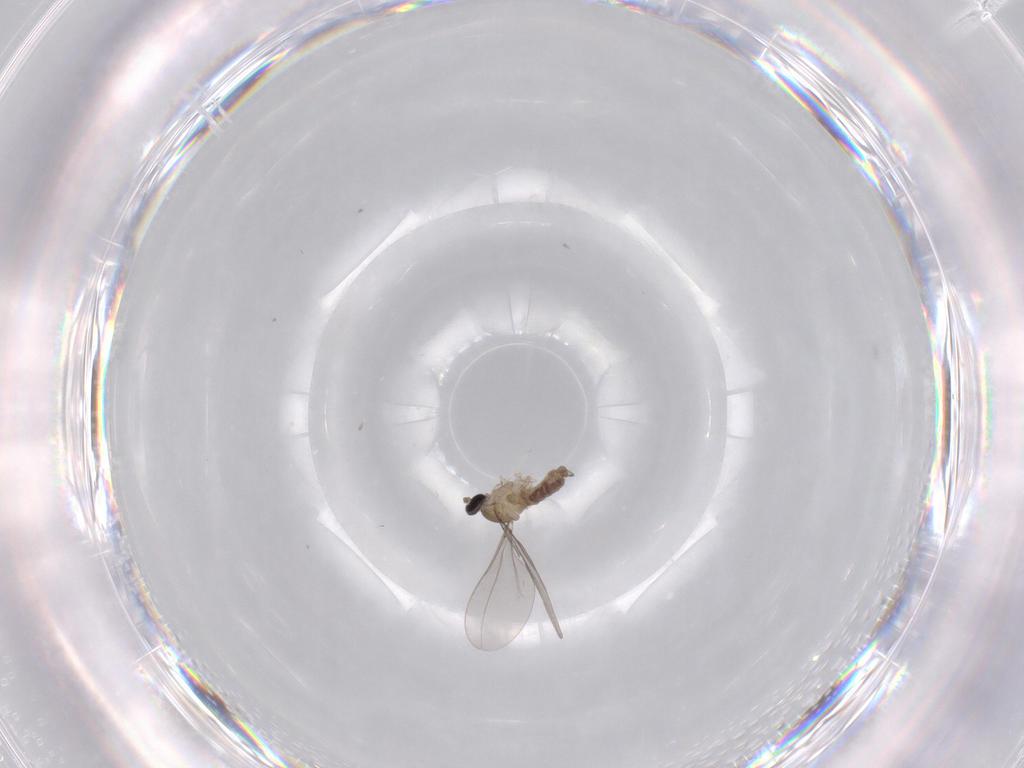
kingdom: Animalia
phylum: Arthropoda
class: Insecta
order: Diptera
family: Cecidomyiidae
